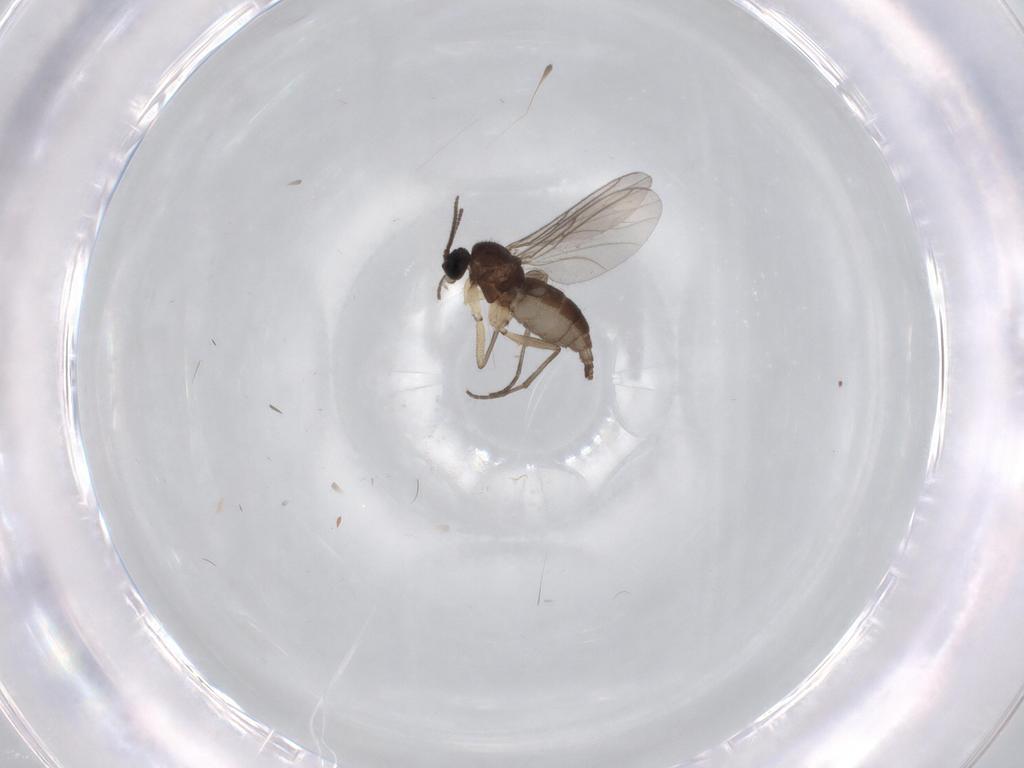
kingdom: Animalia
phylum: Arthropoda
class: Insecta
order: Diptera
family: Sciaridae
